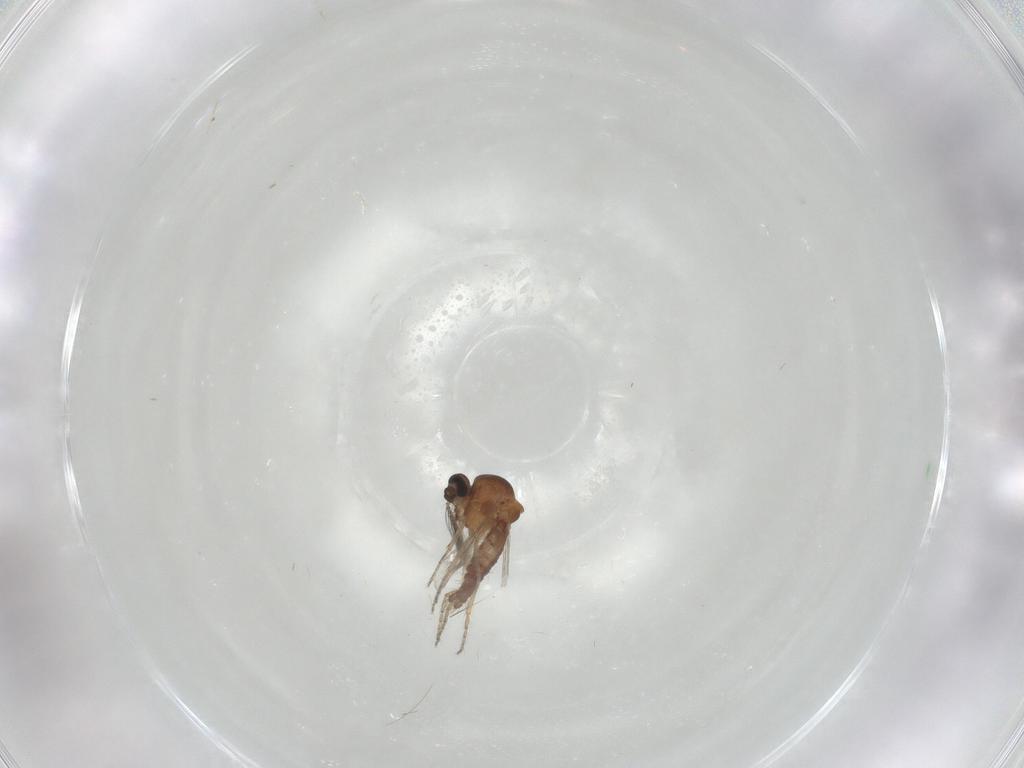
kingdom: Animalia
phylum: Arthropoda
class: Insecta
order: Diptera
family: Ceratopogonidae
